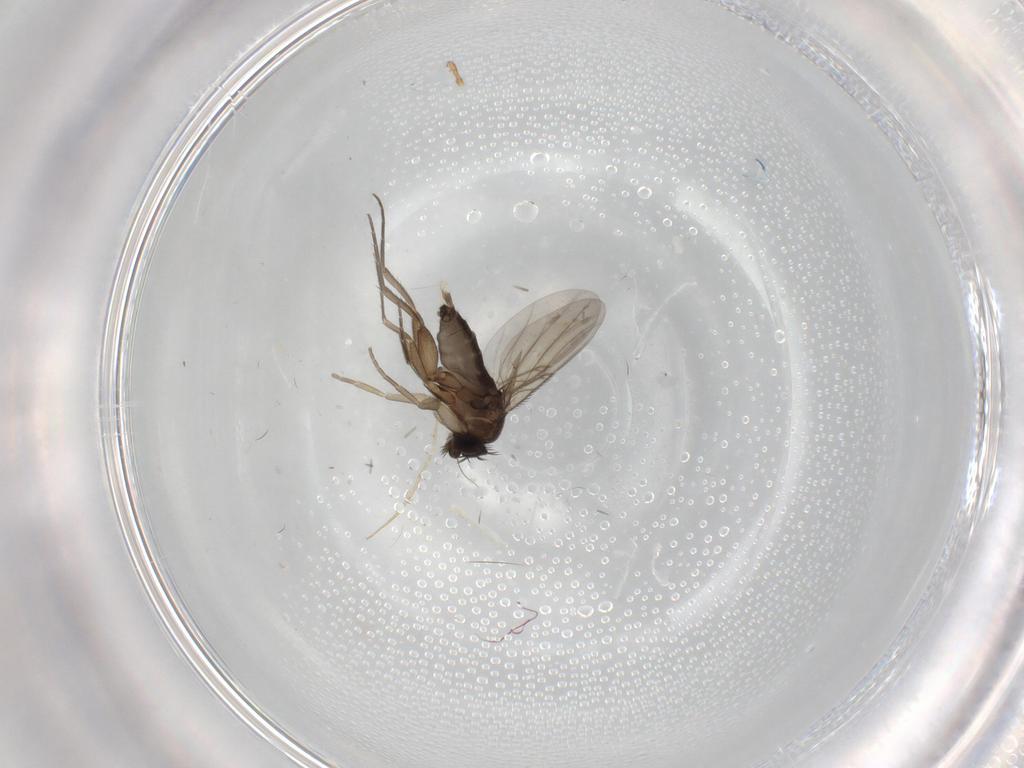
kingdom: Animalia
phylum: Arthropoda
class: Insecta
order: Diptera
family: Phoridae
